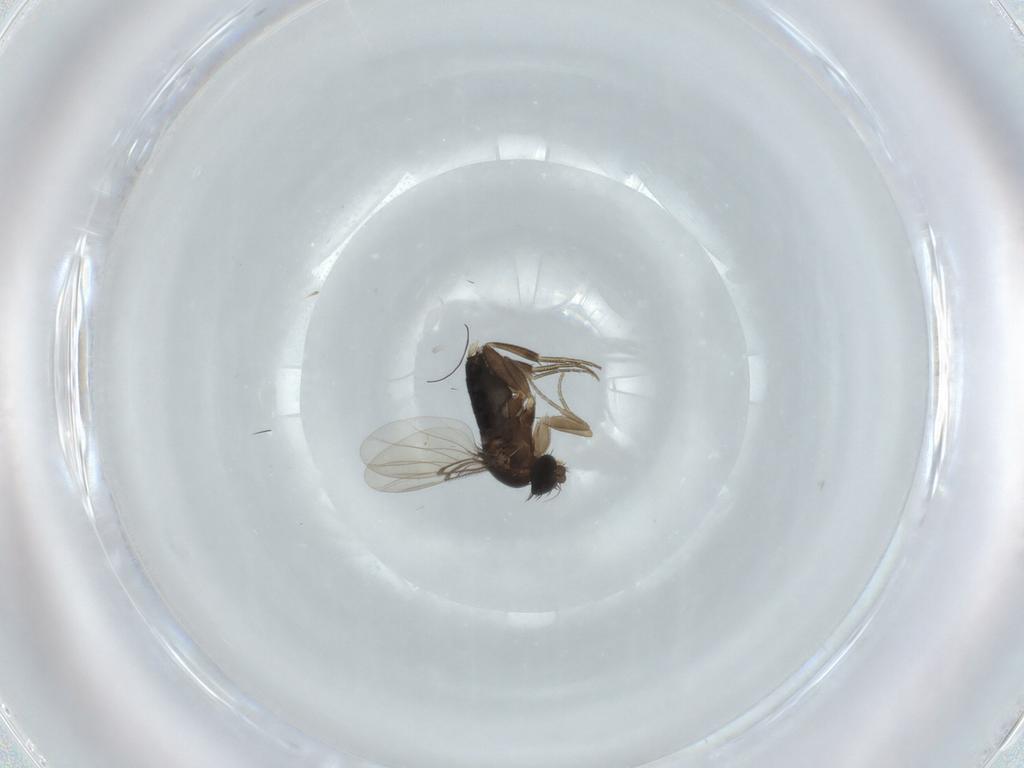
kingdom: Animalia
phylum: Arthropoda
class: Insecta
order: Diptera
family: Phoridae
